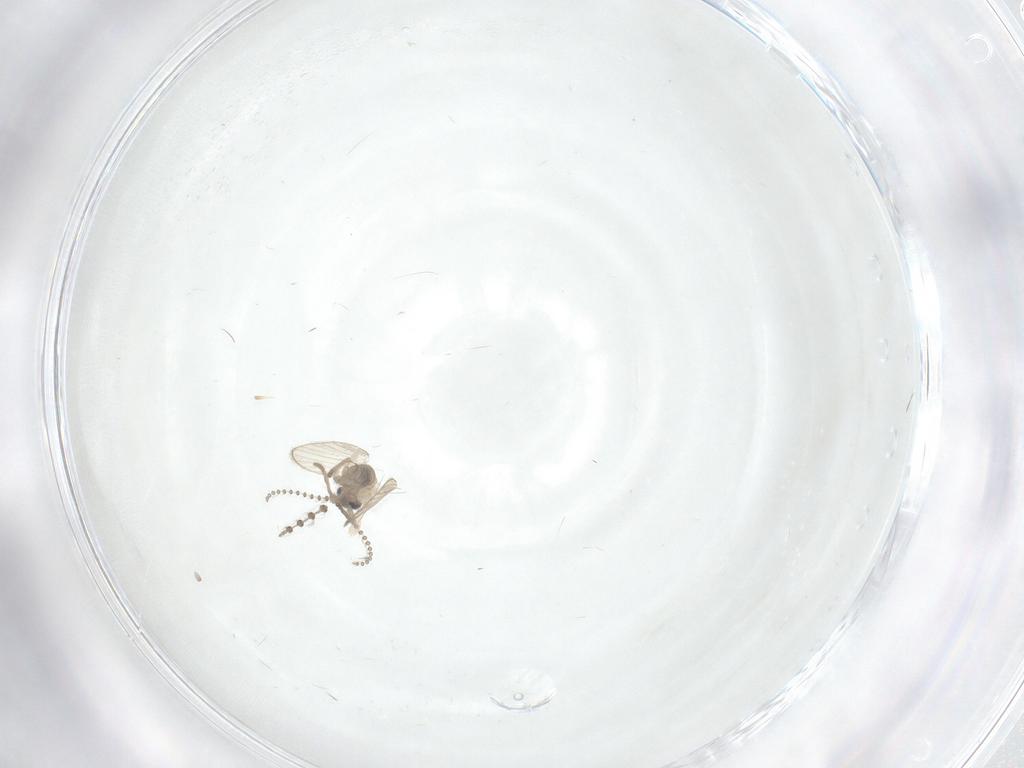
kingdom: Animalia
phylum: Arthropoda
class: Insecta
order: Diptera
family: Psychodidae
